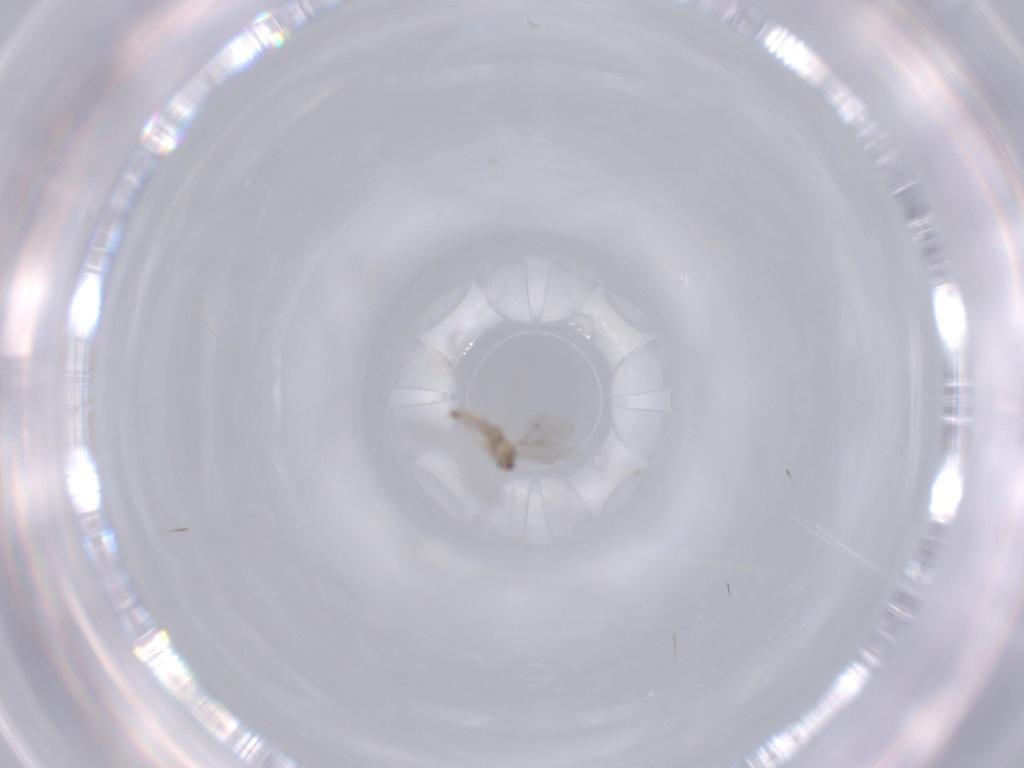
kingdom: Animalia
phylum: Arthropoda
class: Insecta
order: Diptera
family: Cecidomyiidae
